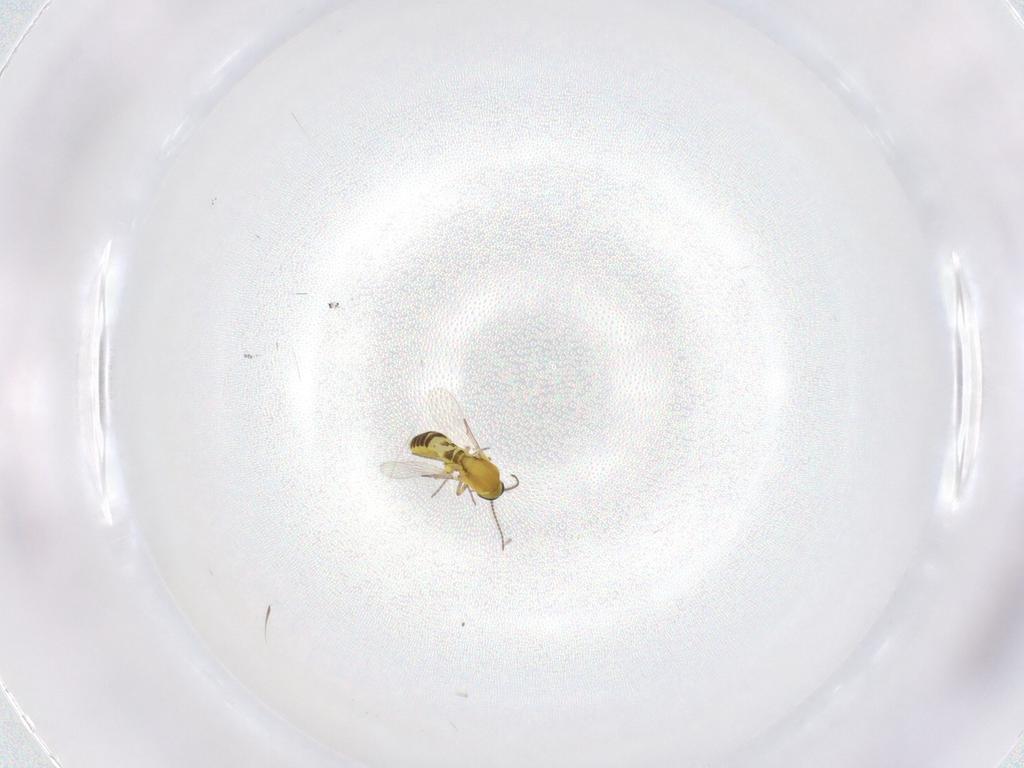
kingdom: Animalia
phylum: Arthropoda
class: Insecta
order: Diptera
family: Ceratopogonidae
